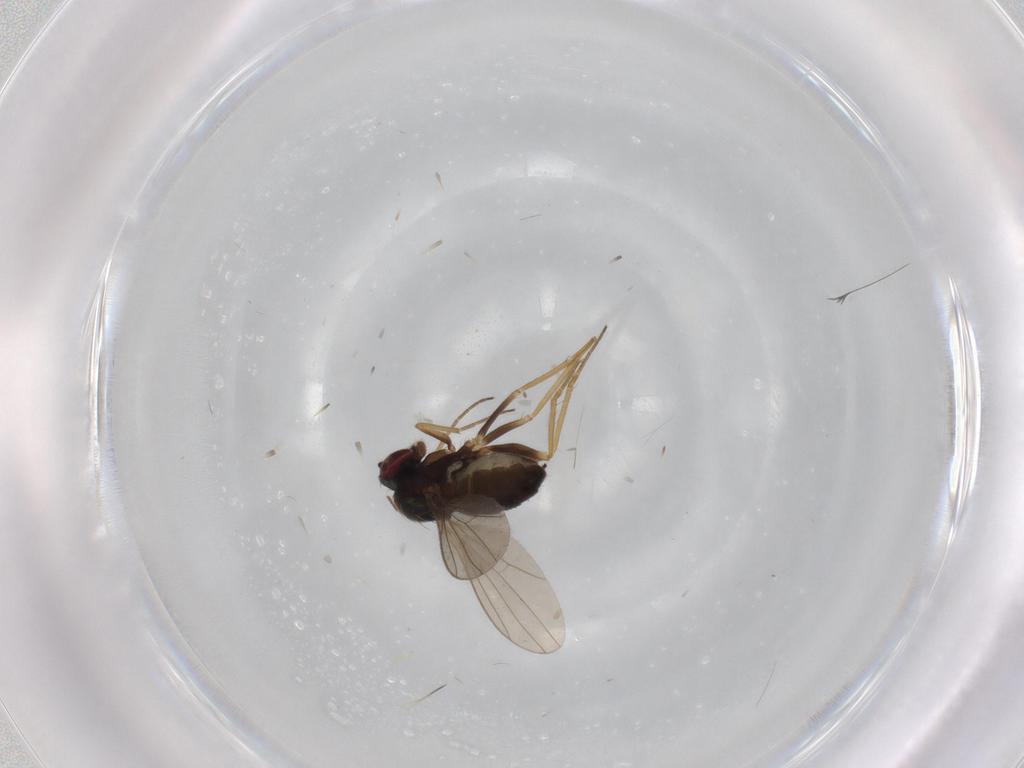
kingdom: Animalia
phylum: Arthropoda
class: Insecta
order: Diptera
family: Dolichopodidae
